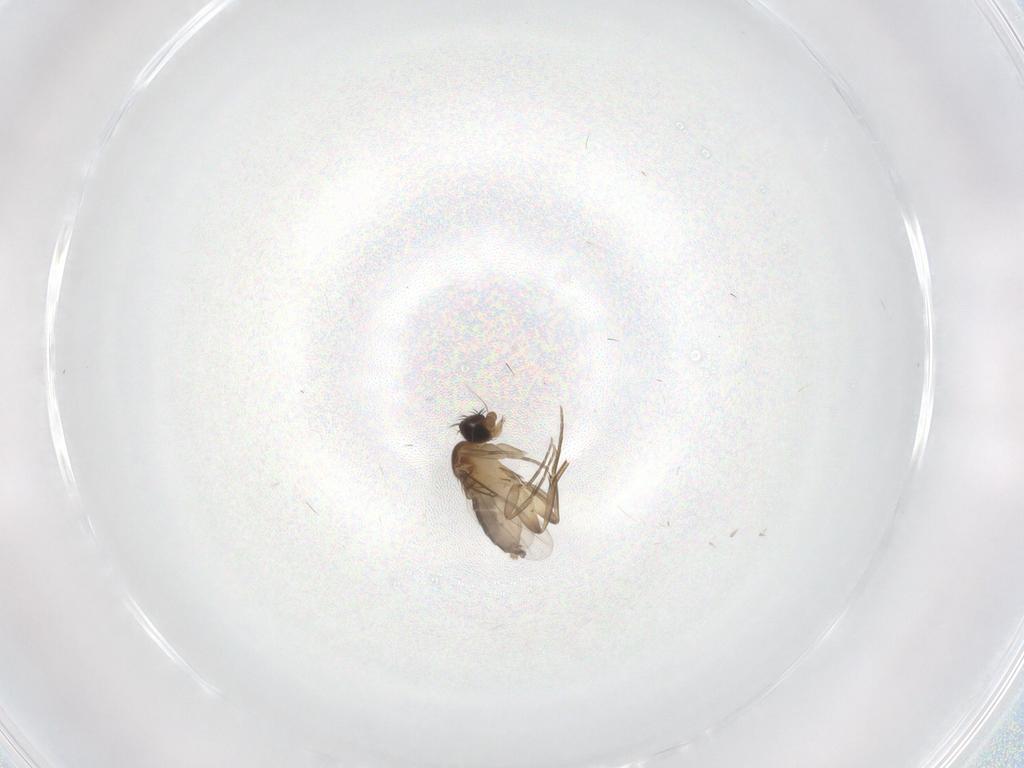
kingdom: Animalia
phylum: Arthropoda
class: Insecta
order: Diptera
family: Phoridae
